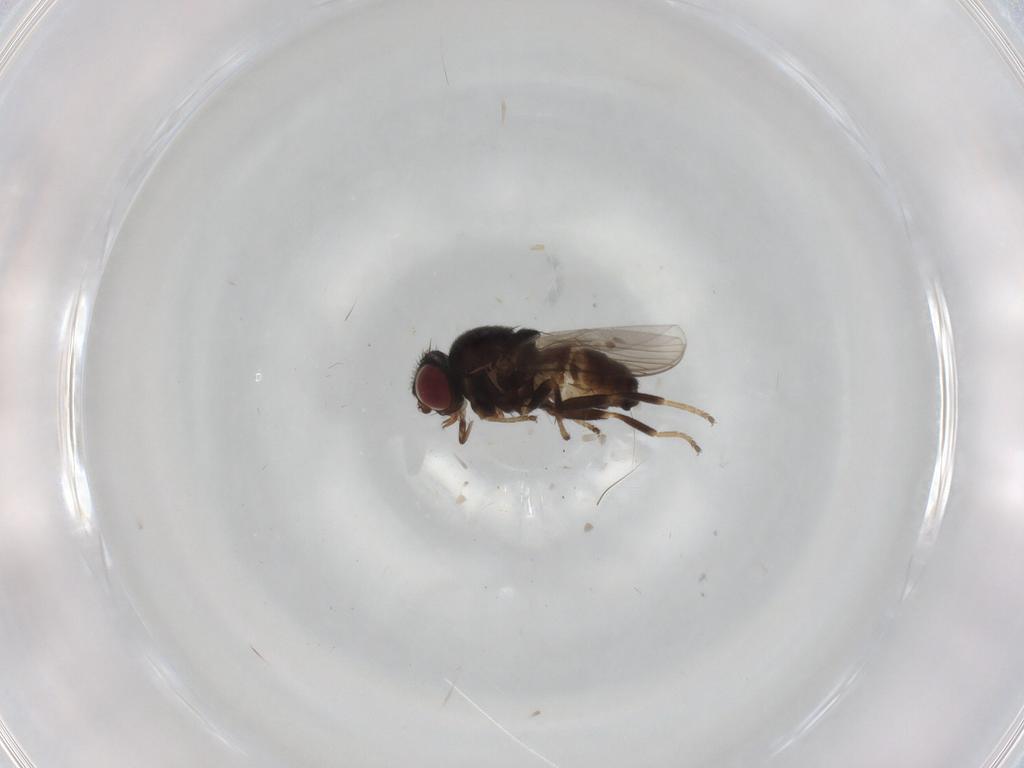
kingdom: Animalia
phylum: Arthropoda
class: Insecta
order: Diptera
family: Chloropidae
